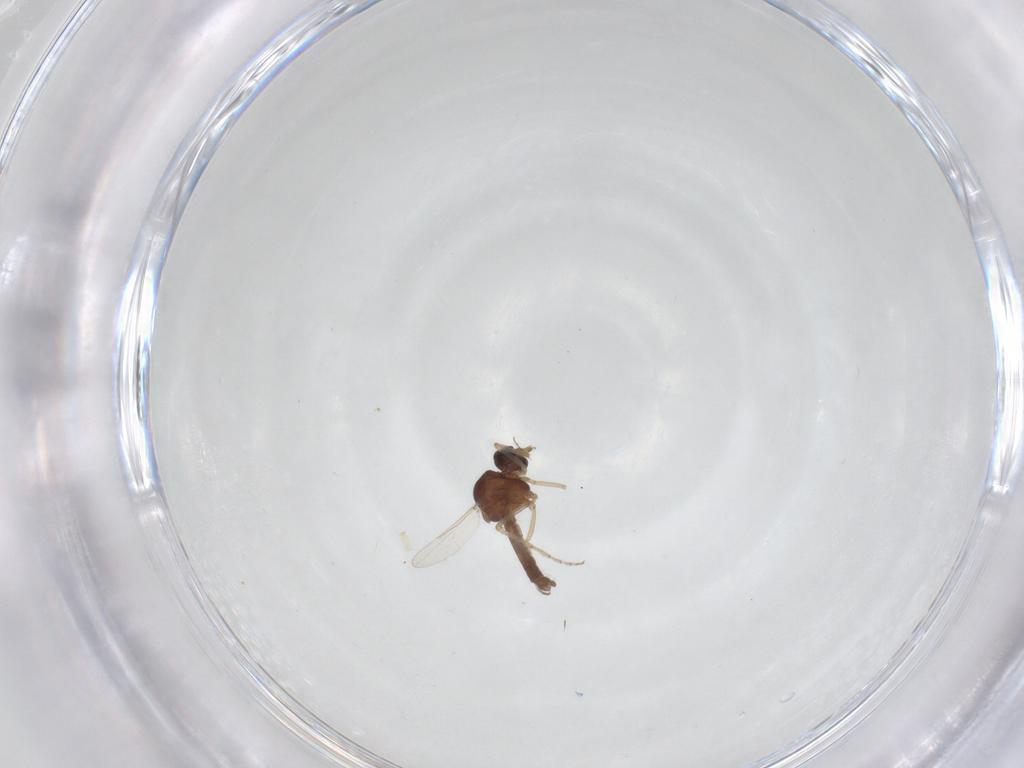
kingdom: Animalia
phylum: Arthropoda
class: Insecta
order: Diptera
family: Ceratopogonidae
